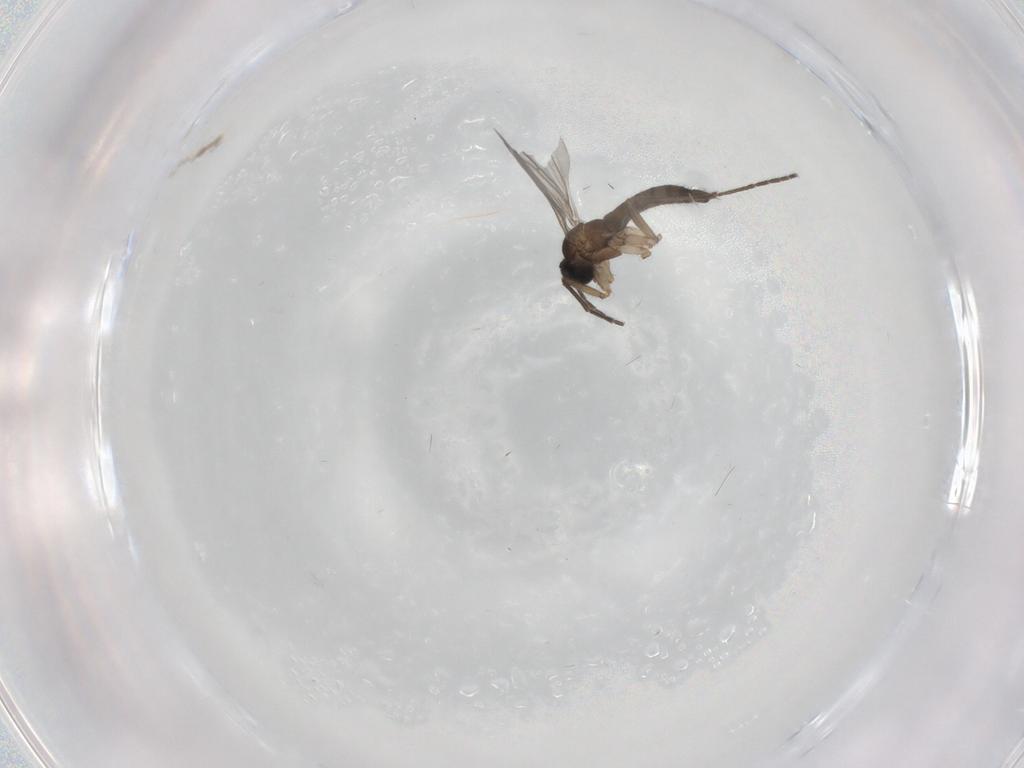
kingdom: Animalia
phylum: Arthropoda
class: Insecta
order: Diptera
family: Sciaridae
